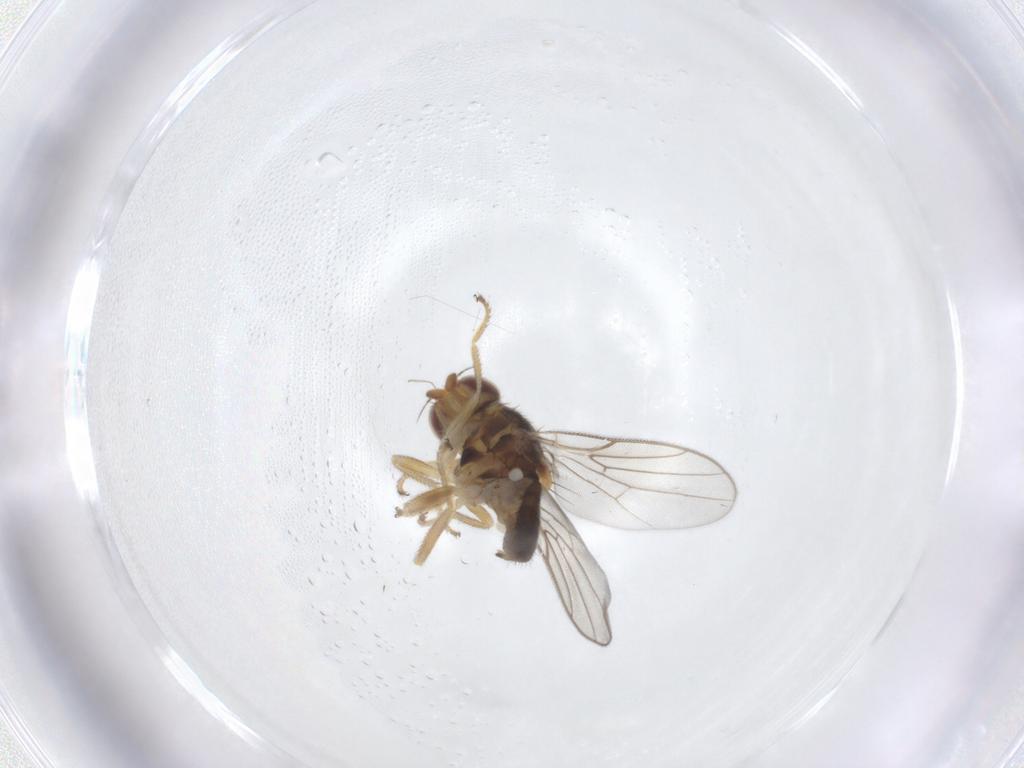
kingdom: Animalia
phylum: Arthropoda
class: Insecta
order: Diptera
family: Chloropidae
